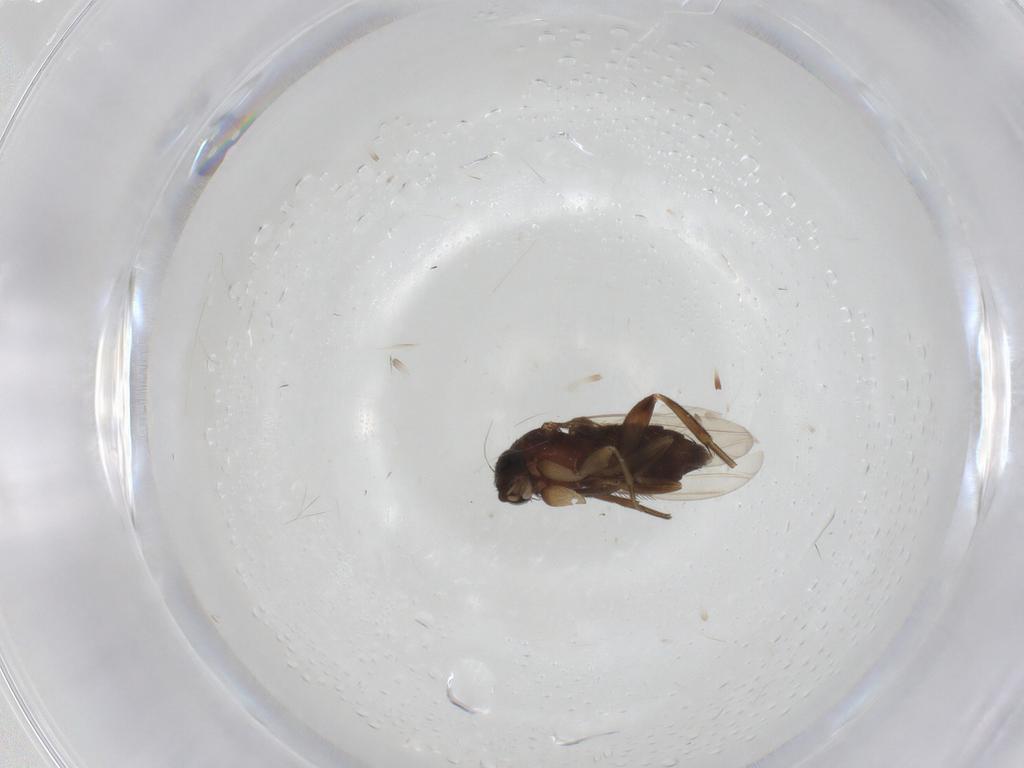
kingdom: Animalia
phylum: Arthropoda
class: Insecta
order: Diptera
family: Phoridae
